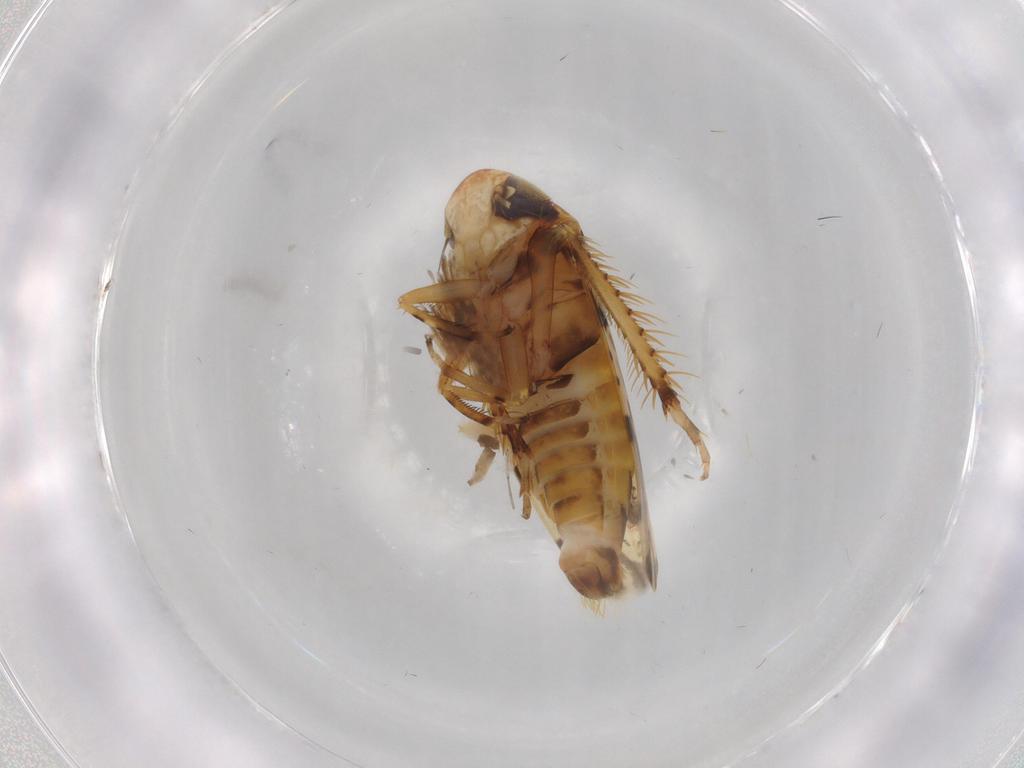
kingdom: Animalia
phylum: Arthropoda
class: Insecta
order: Hemiptera
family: Cicadellidae
